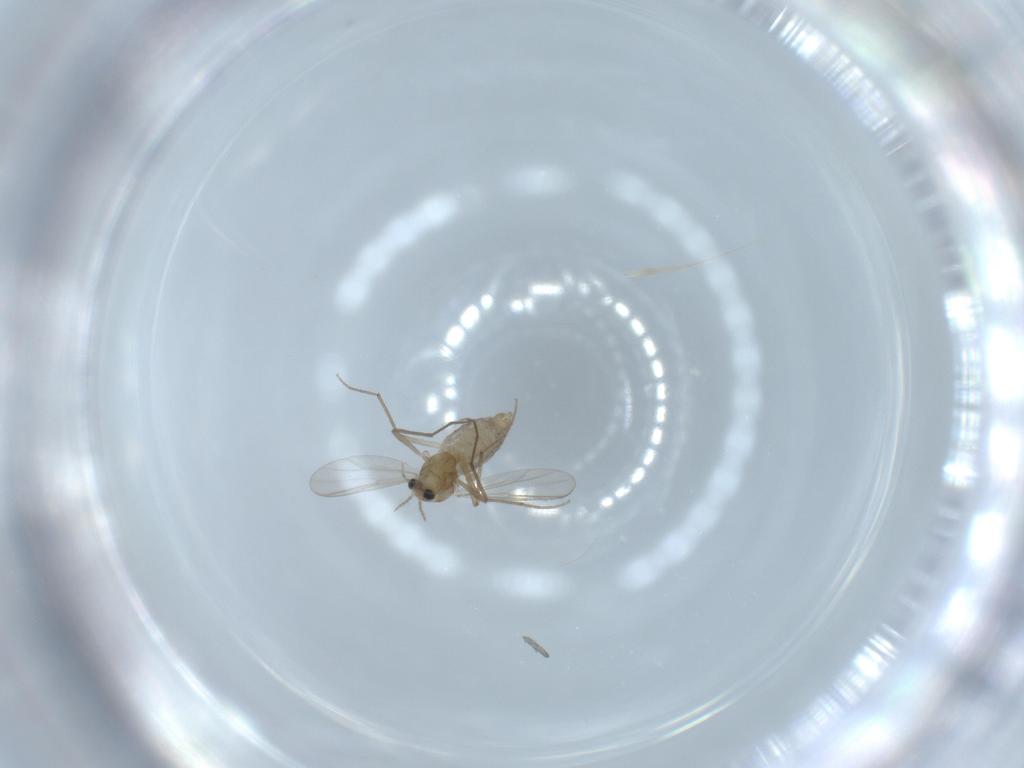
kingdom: Animalia
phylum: Arthropoda
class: Insecta
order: Diptera
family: Chironomidae
